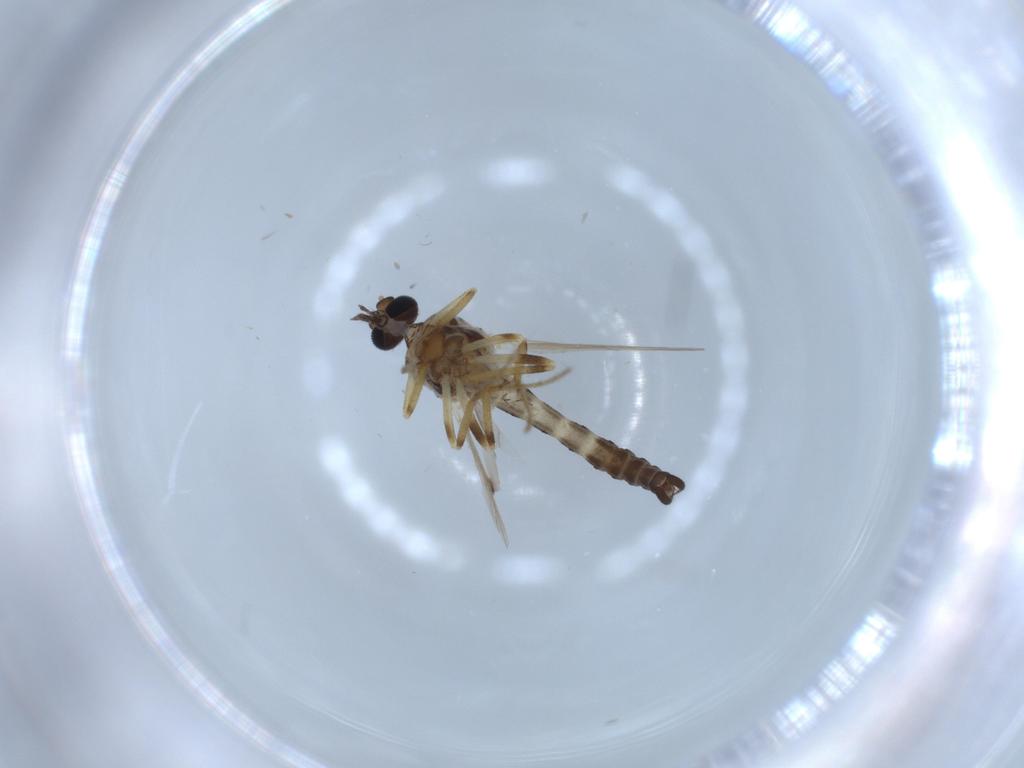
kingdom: Animalia
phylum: Arthropoda
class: Insecta
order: Diptera
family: Ceratopogonidae
